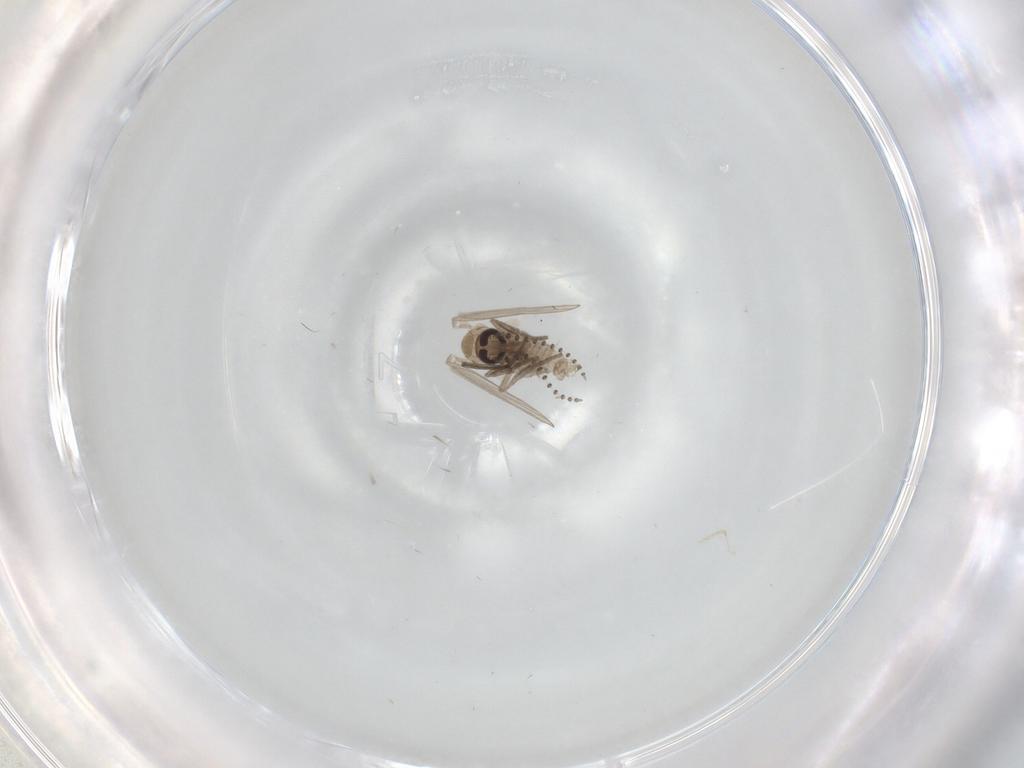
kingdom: Animalia
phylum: Arthropoda
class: Insecta
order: Diptera
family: Psychodidae
